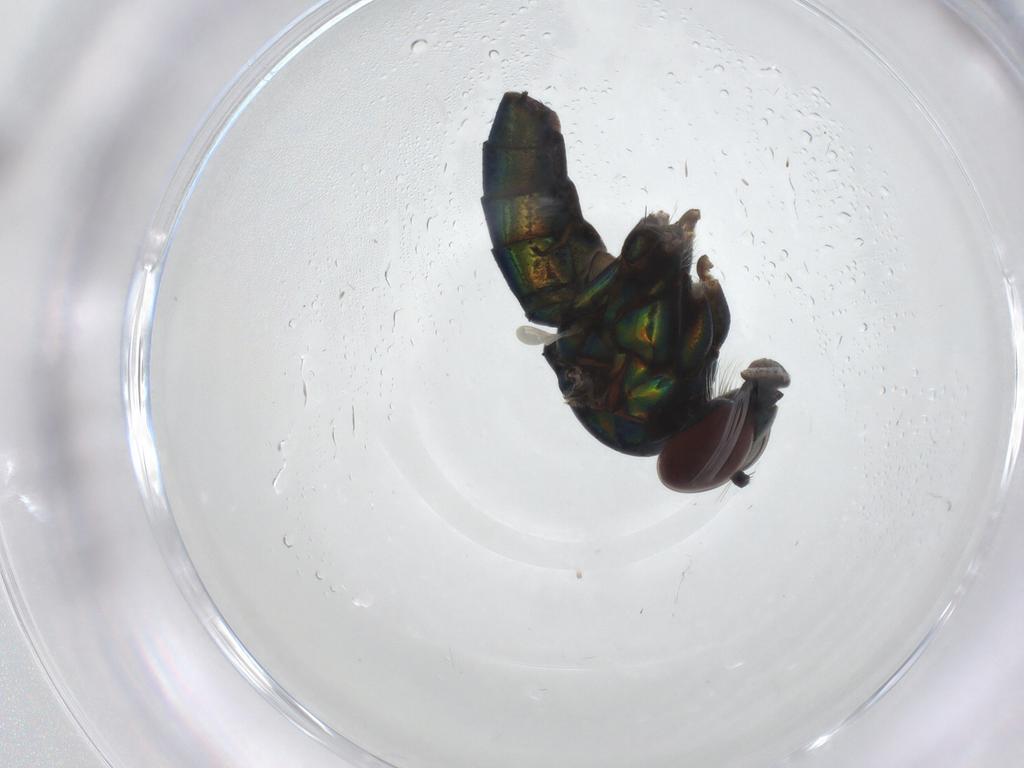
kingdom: Animalia
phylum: Arthropoda
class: Insecta
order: Diptera
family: Dolichopodidae
